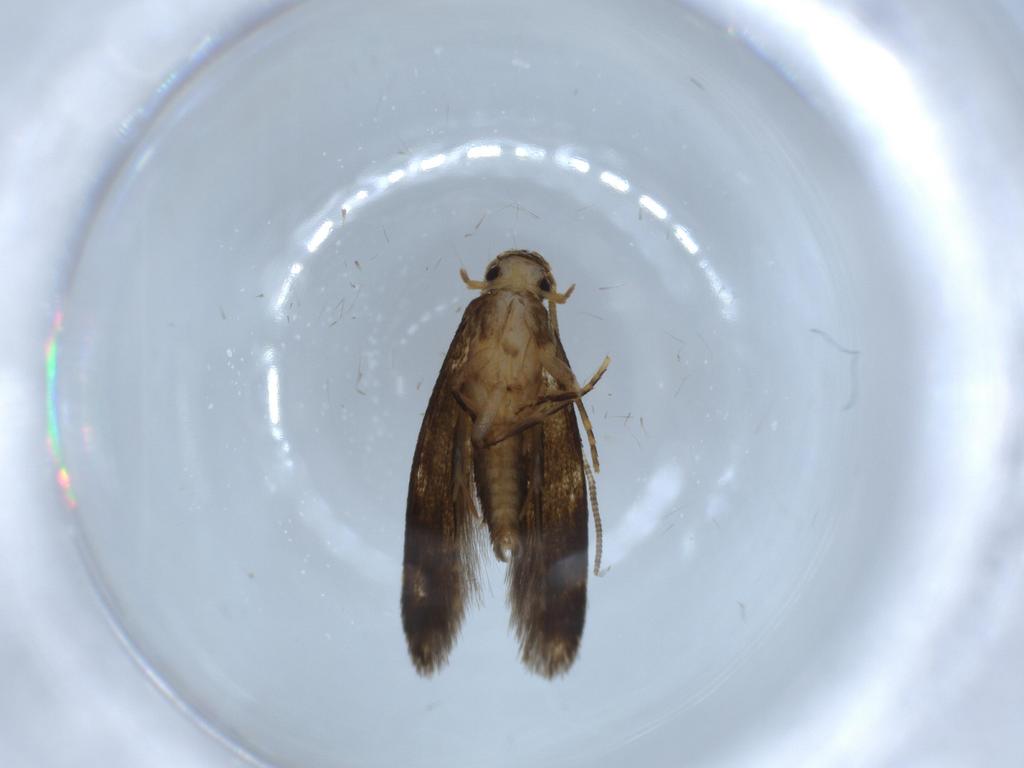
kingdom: Animalia
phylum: Arthropoda
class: Insecta
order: Lepidoptera
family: Tineidae
